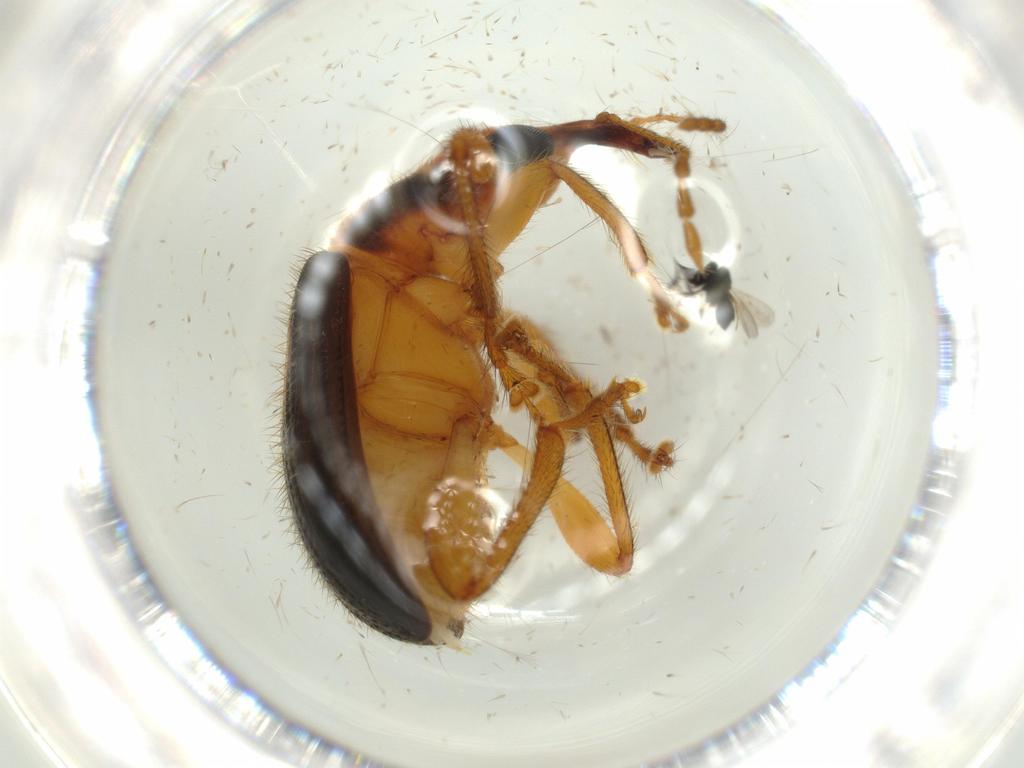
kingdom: Animalia
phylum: Arthropoda
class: Insecta
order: Coleoptera
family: Attelabidae
